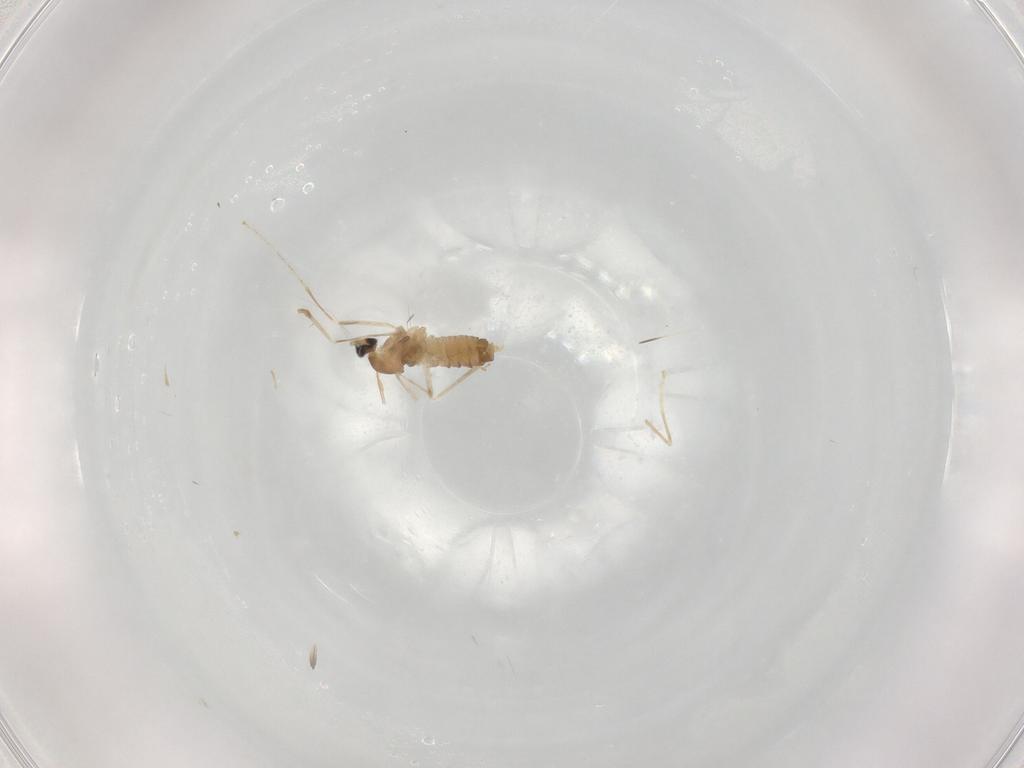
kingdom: Animalia
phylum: Arthropoda
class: Insecta
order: Diptera
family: Cecidomyiidae
